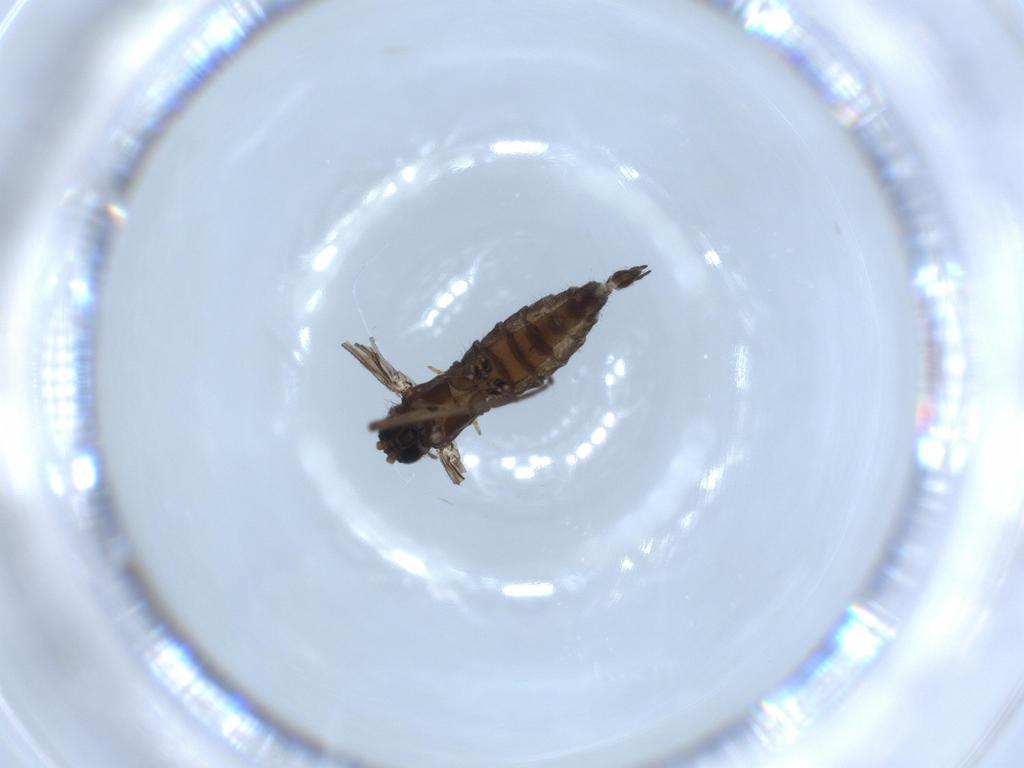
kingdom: Animalia
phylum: Arthropoda
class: Insecta
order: Diptera
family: Sciaridae
